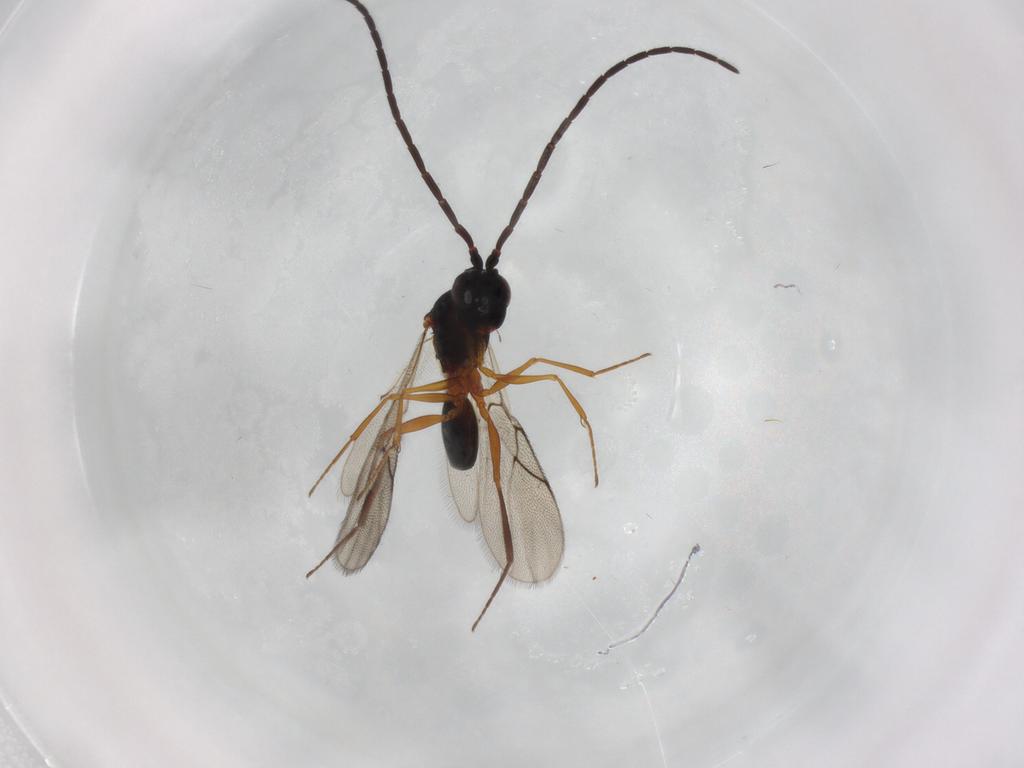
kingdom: Animalia
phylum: Arthropoda
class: Insecta
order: Hymenoptera
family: Figitidae
